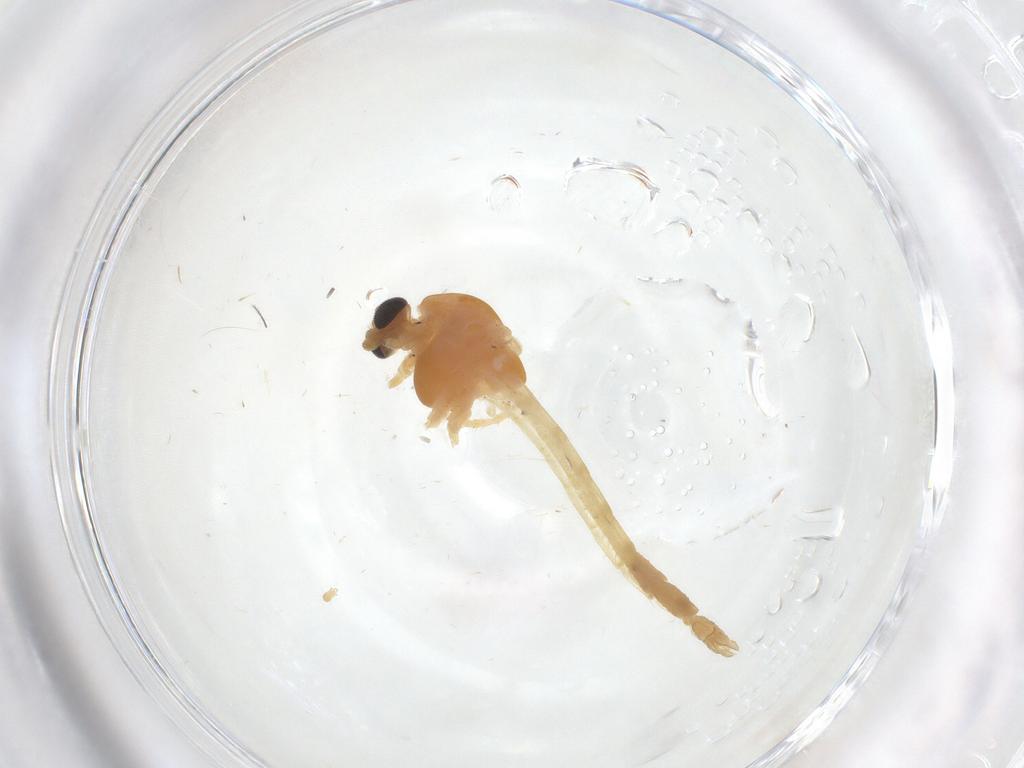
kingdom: Animalia
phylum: Arthropoda
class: Insecta
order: Diptera
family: Chironomidae
